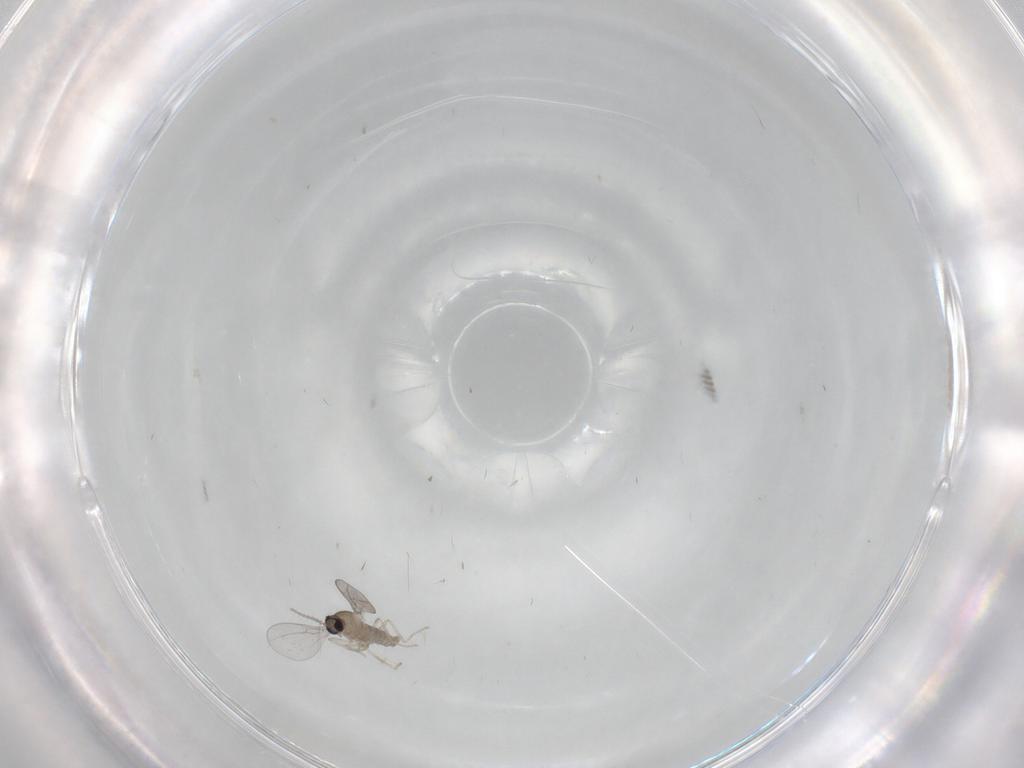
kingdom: Animalia
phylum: Arthropoda
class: Insecta
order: Diptera
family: Cecidomyiidae
